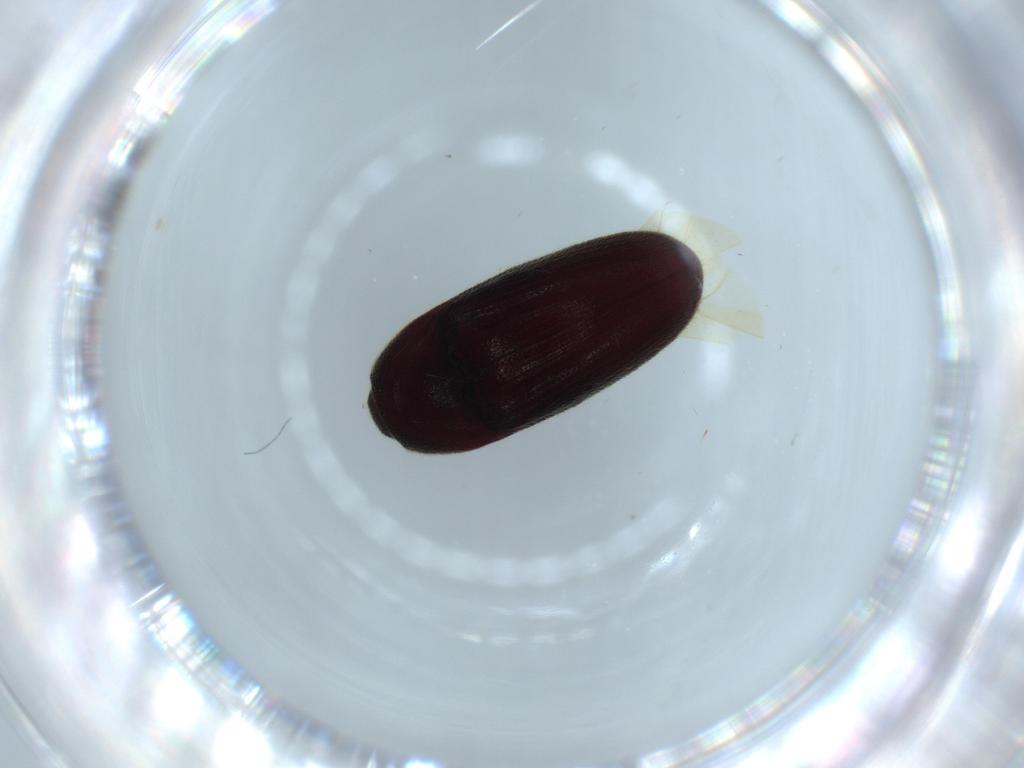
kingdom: Animalia
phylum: Arthropoda
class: Insecta
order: Coleoptera
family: Throscidae
